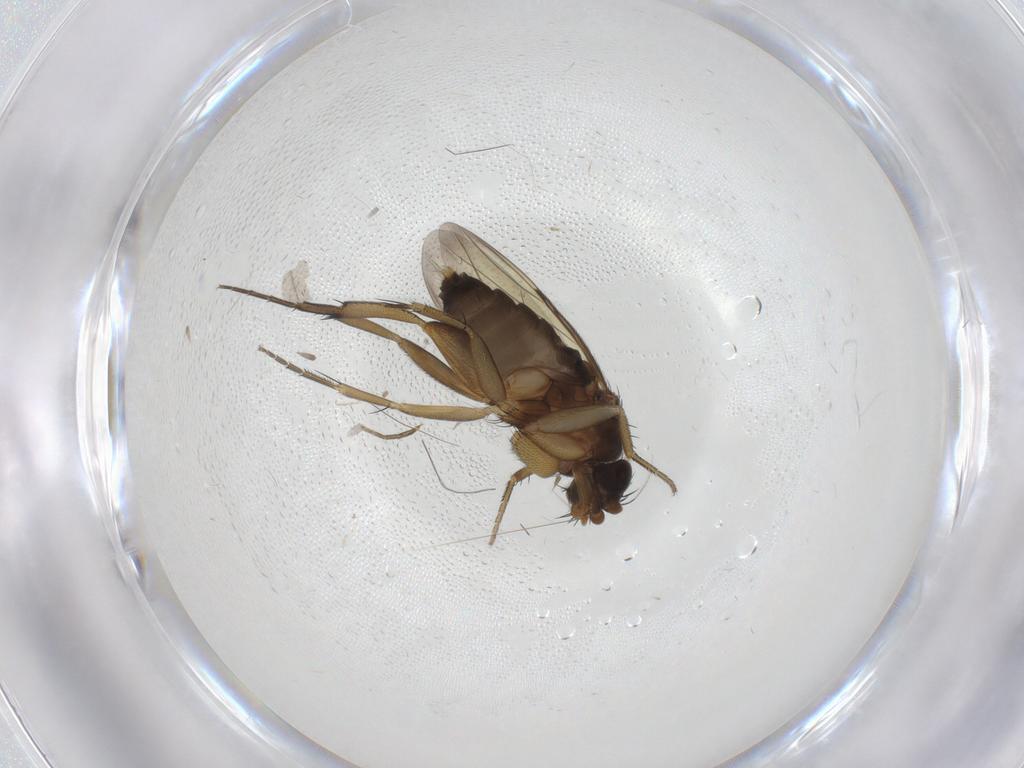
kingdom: Animalia
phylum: Arthropoda
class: Insecta
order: Diptera
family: Phoridae
